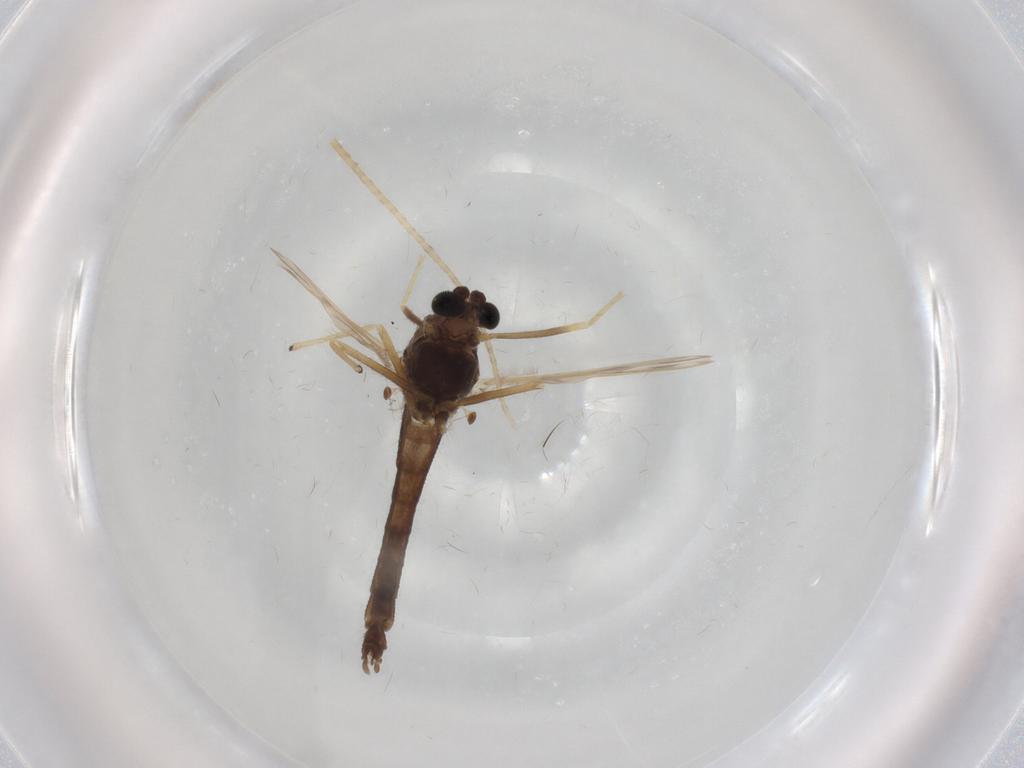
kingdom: Animalia
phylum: Arthropoda
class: Insecta
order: Diptera
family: Chironomidae
